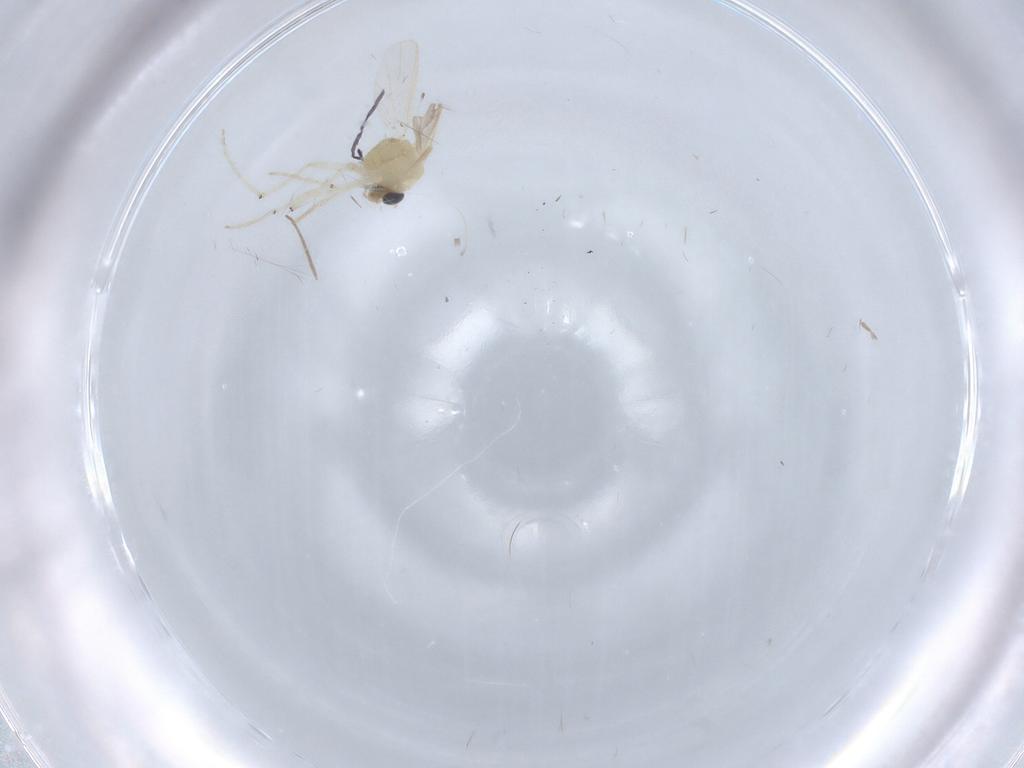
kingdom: Animalia
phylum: Arthropoda
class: Insecta
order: Diptera
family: Chironomidae
